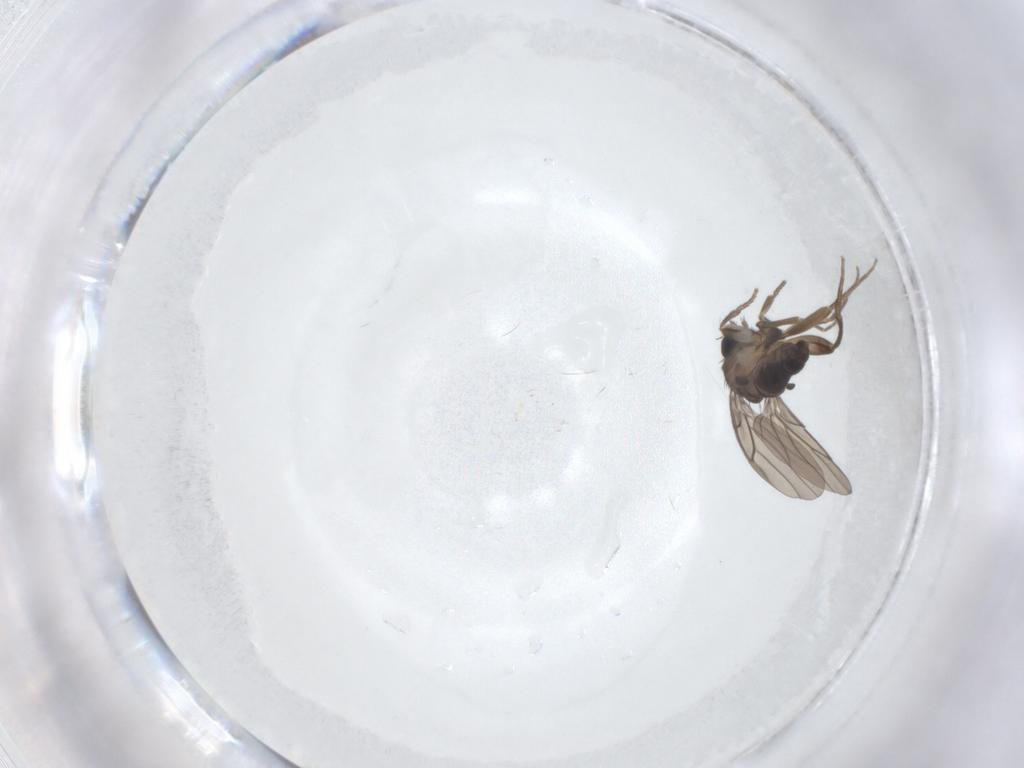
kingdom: Animalia
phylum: Arthropoda
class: Insecta
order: Diptera
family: Chironomidae
